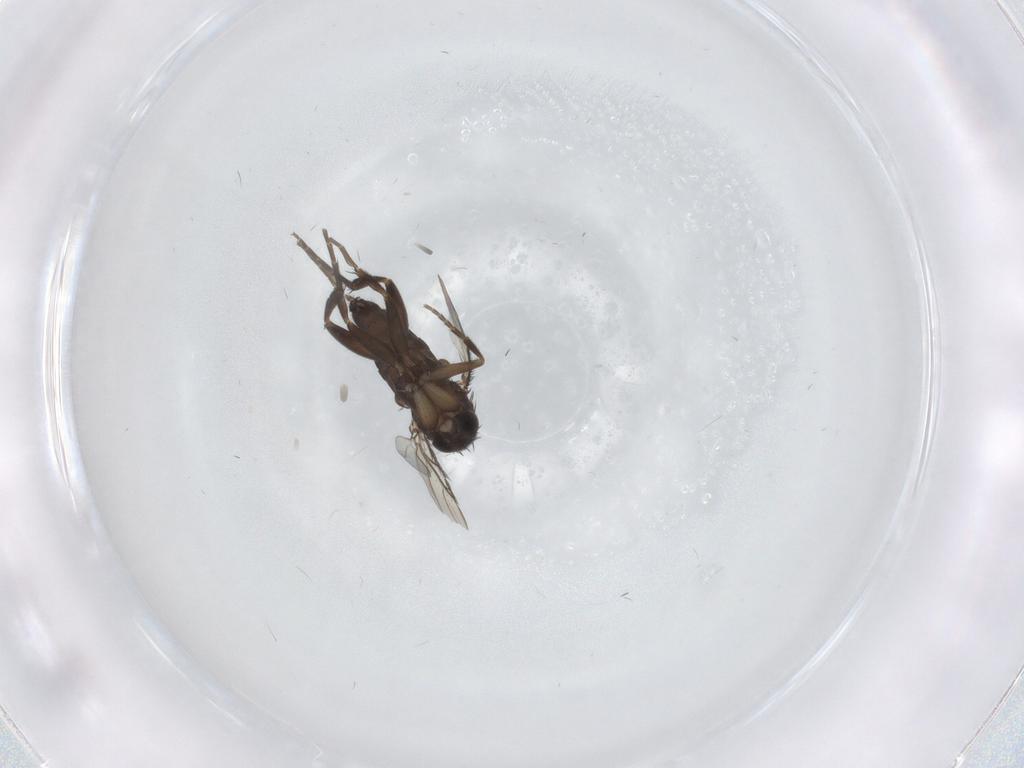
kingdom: Animalia
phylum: Arthropoda
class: Insecta
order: Diptera
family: Phoridae
